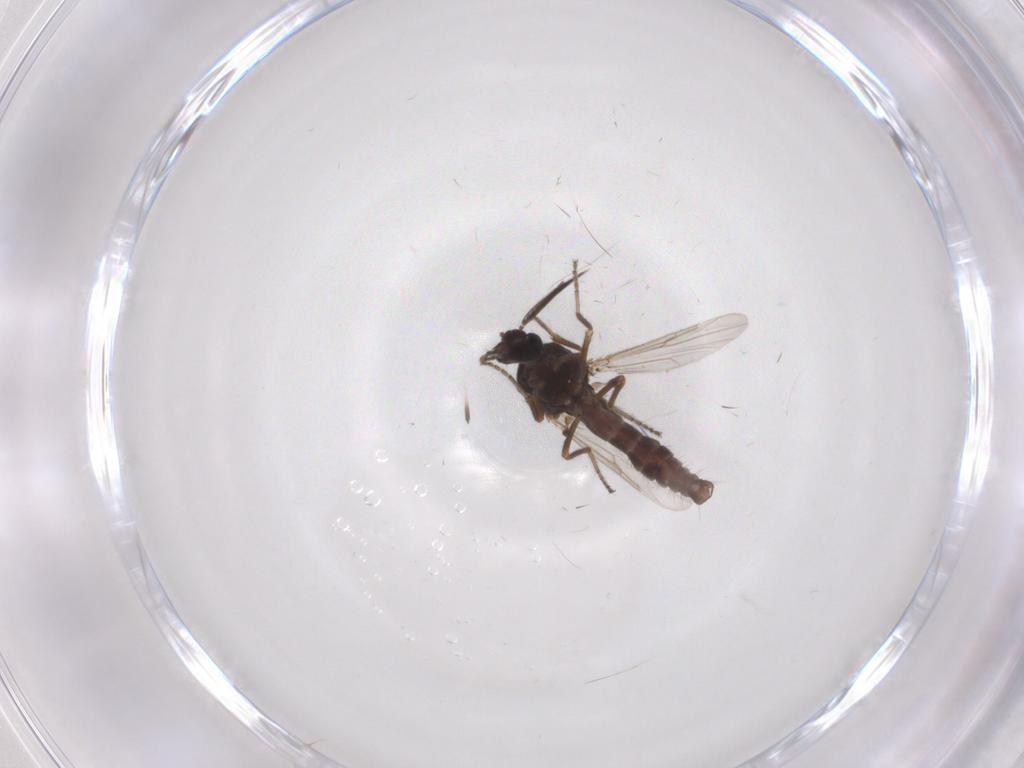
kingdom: Animalia
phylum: Arthropoda
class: Insecta
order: Diptera
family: Ceratopogonidae
